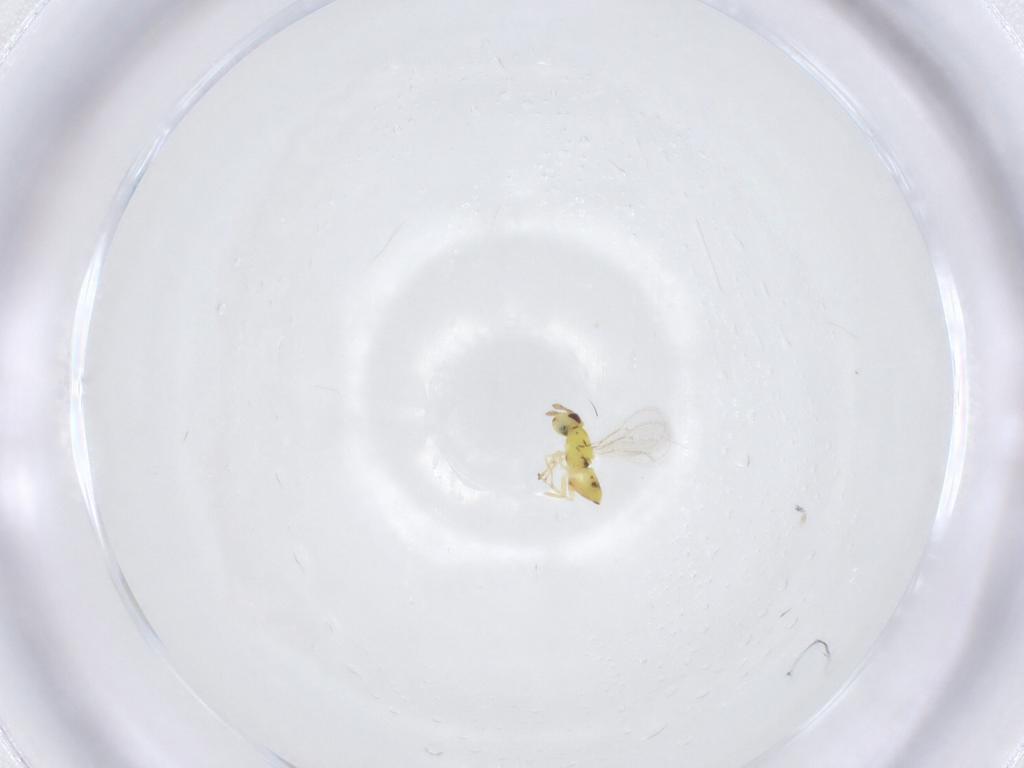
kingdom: Animalia
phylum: Arthropoda
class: Insecta
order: Hymenoptera
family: Eulophidae
